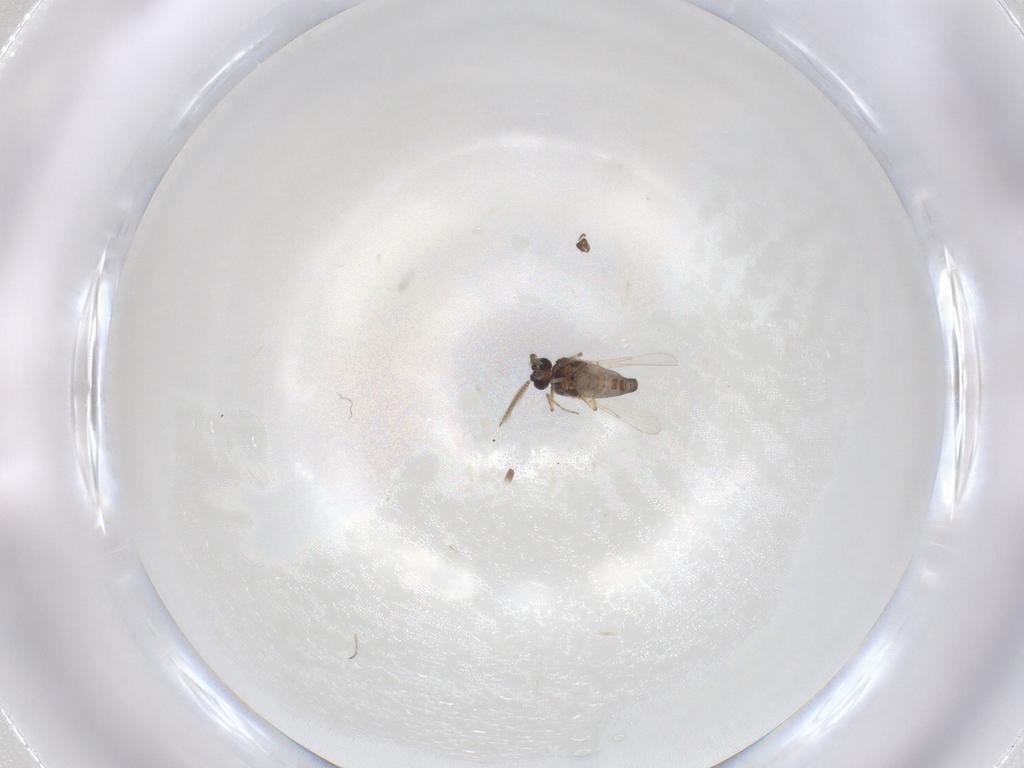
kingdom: Animalia
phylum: Arthropoda
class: Insecta
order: Diptera
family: Ceratopogonidae
